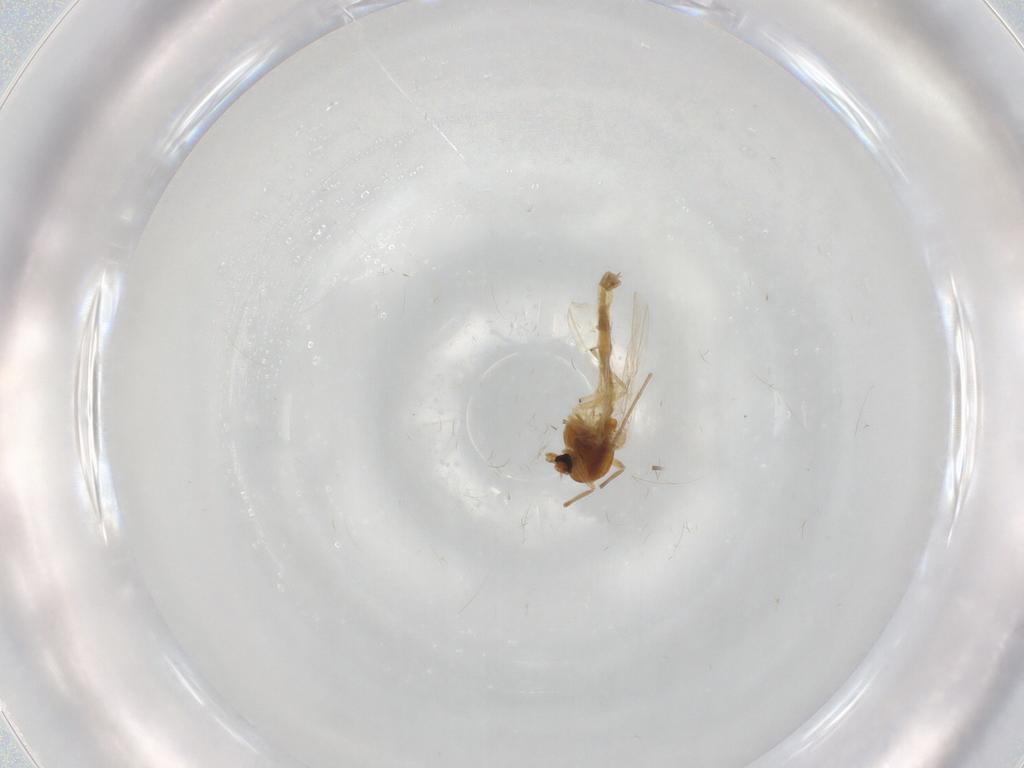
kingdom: Animalia
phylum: Arthropoda
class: Insecta
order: Diptera
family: Chironomidae
